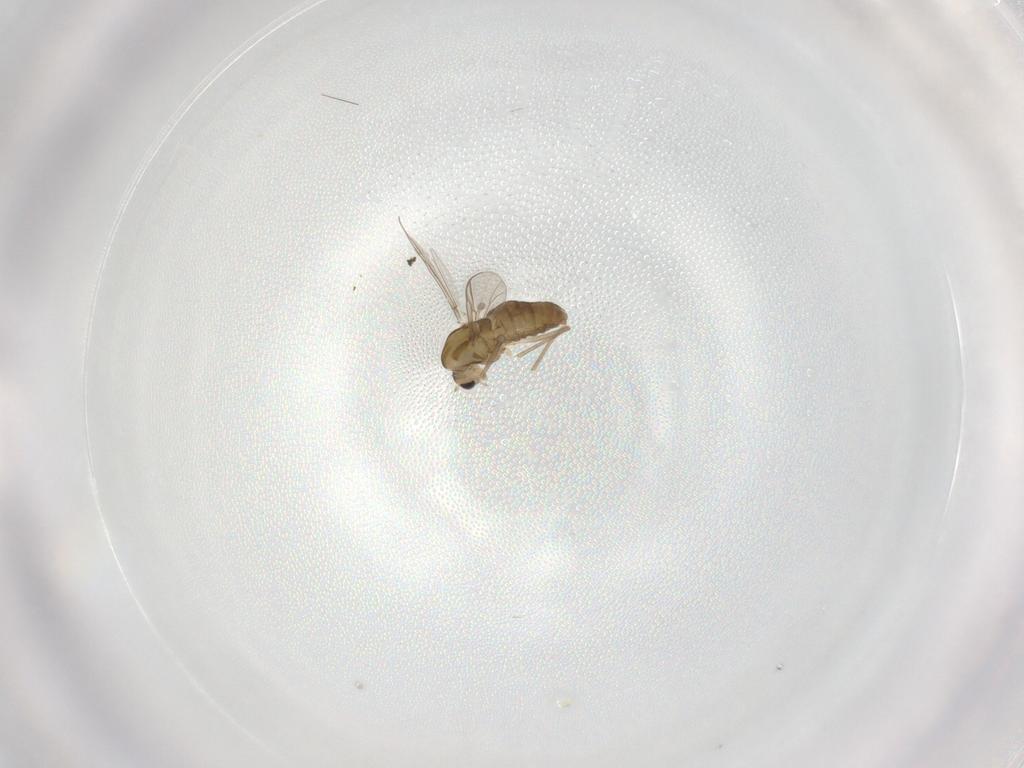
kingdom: Animalia
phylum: Arthropoda
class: Insecta
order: Diptera
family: Chironomidae
